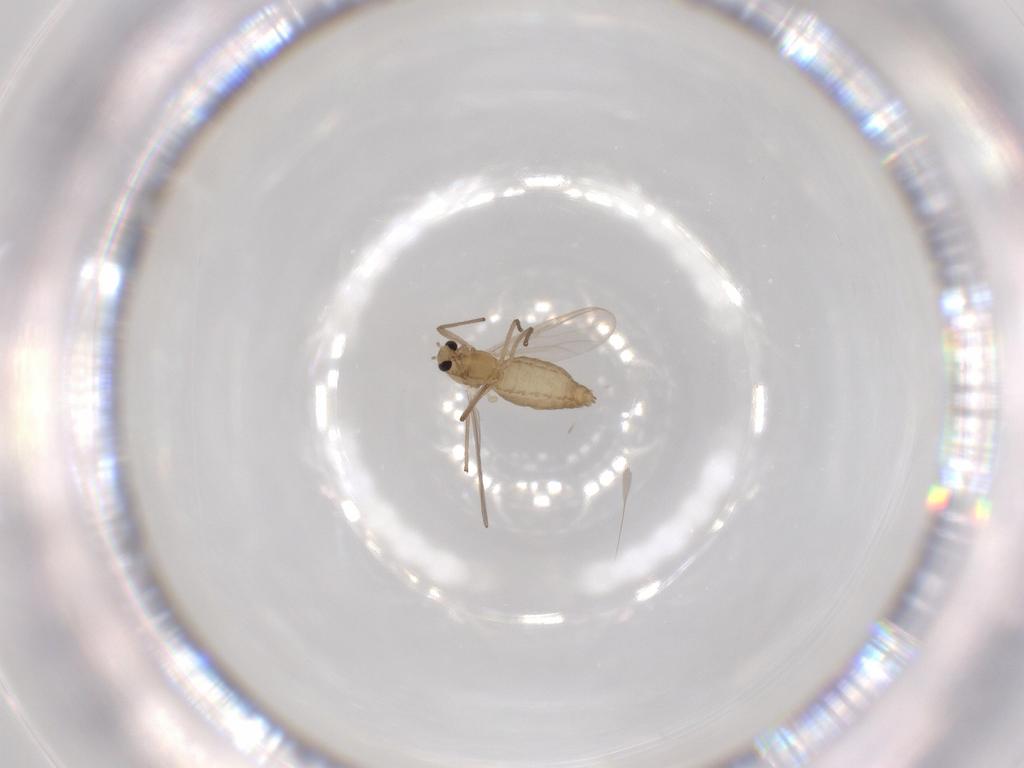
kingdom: Animalia
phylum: Arthropoda
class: Insecta
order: Diptera
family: Chironomidae
